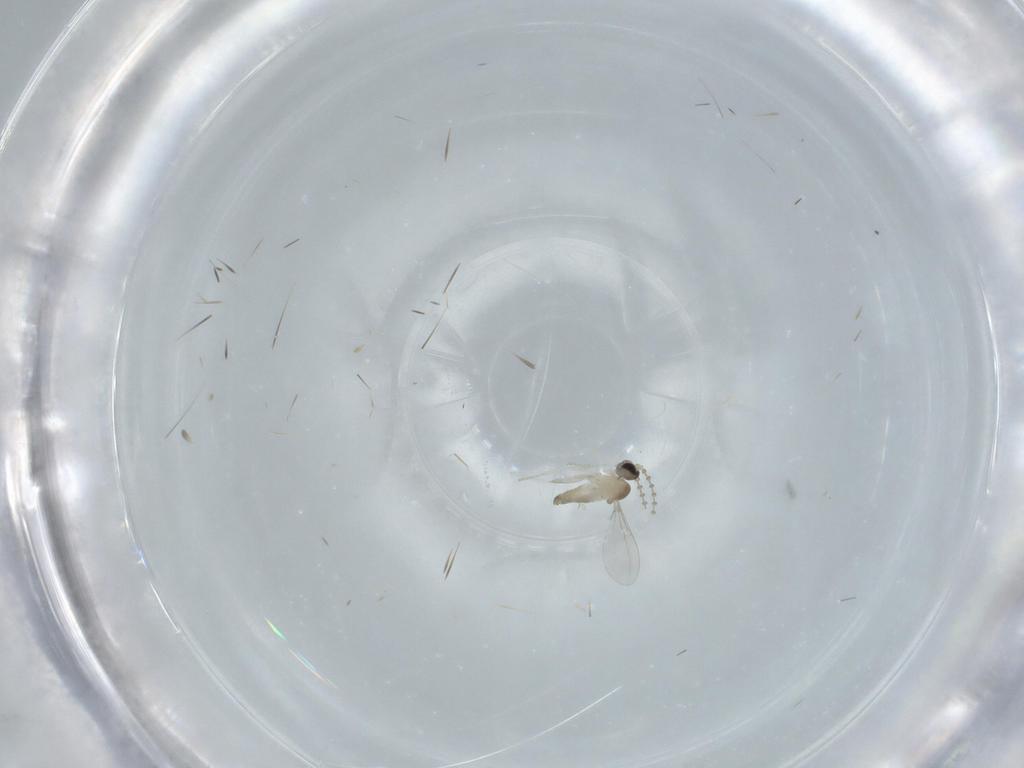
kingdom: Animalia
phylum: Arthropoda
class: Insecta
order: Diptera
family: Cecidomyiidae
